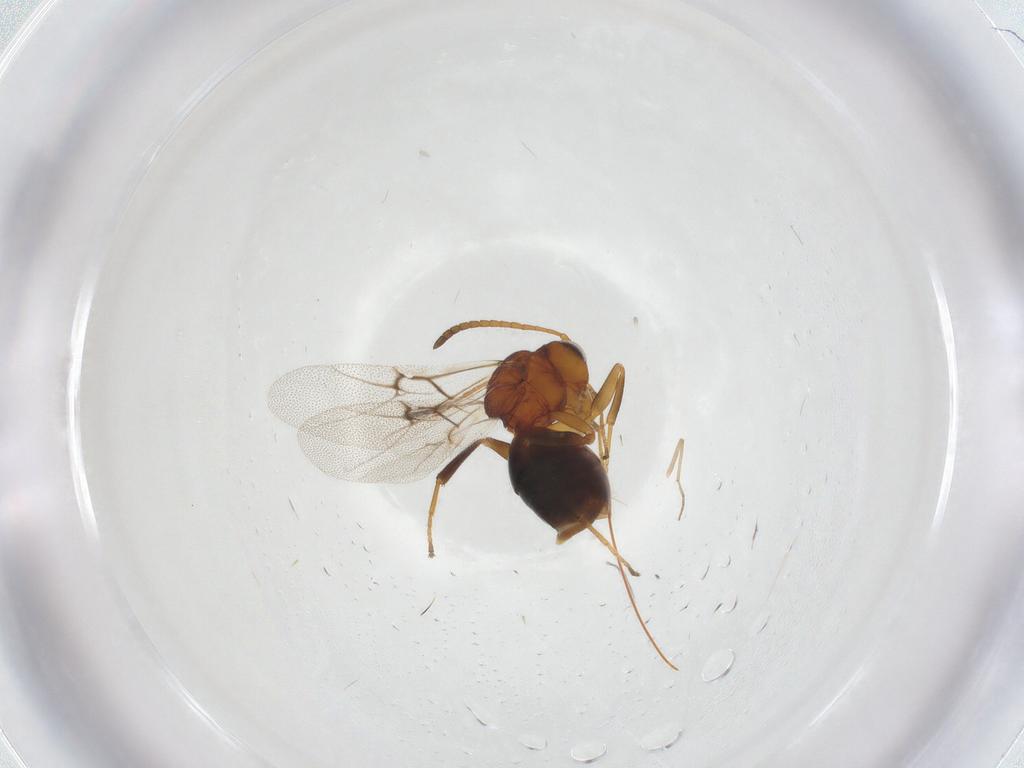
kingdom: Animalia
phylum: Arthropoda
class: Insecta
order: Hymenoptera
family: Cynipidae
